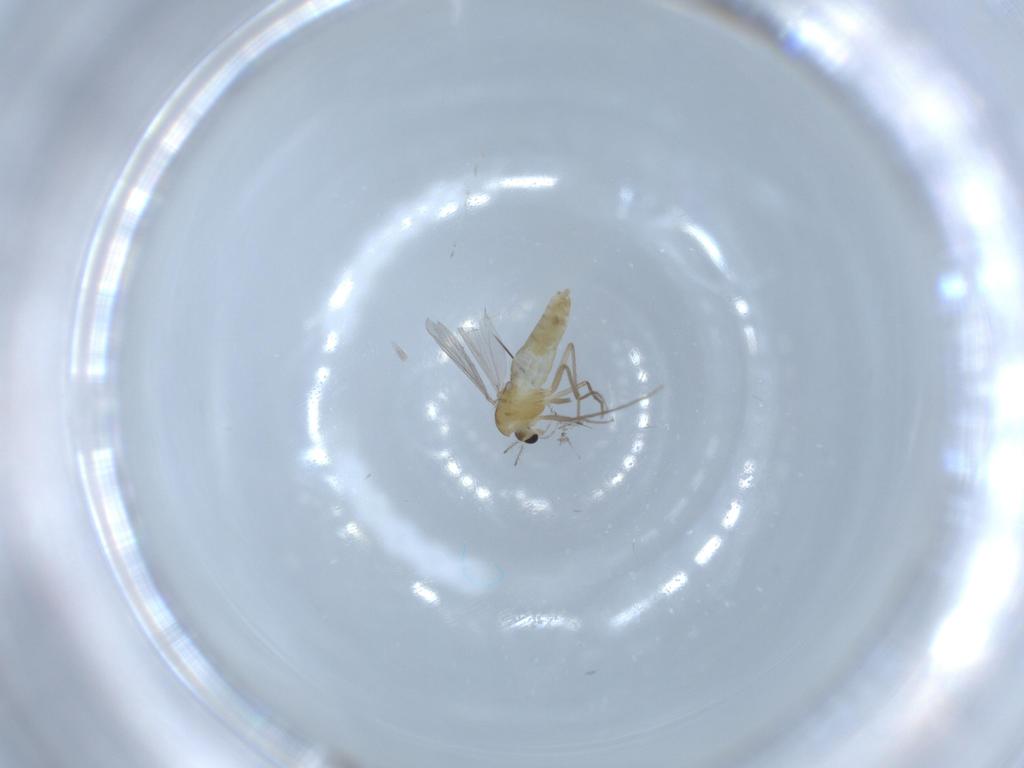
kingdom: Animalia
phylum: Arthropoda
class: Insecta
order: Diptera
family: Chironomidae
